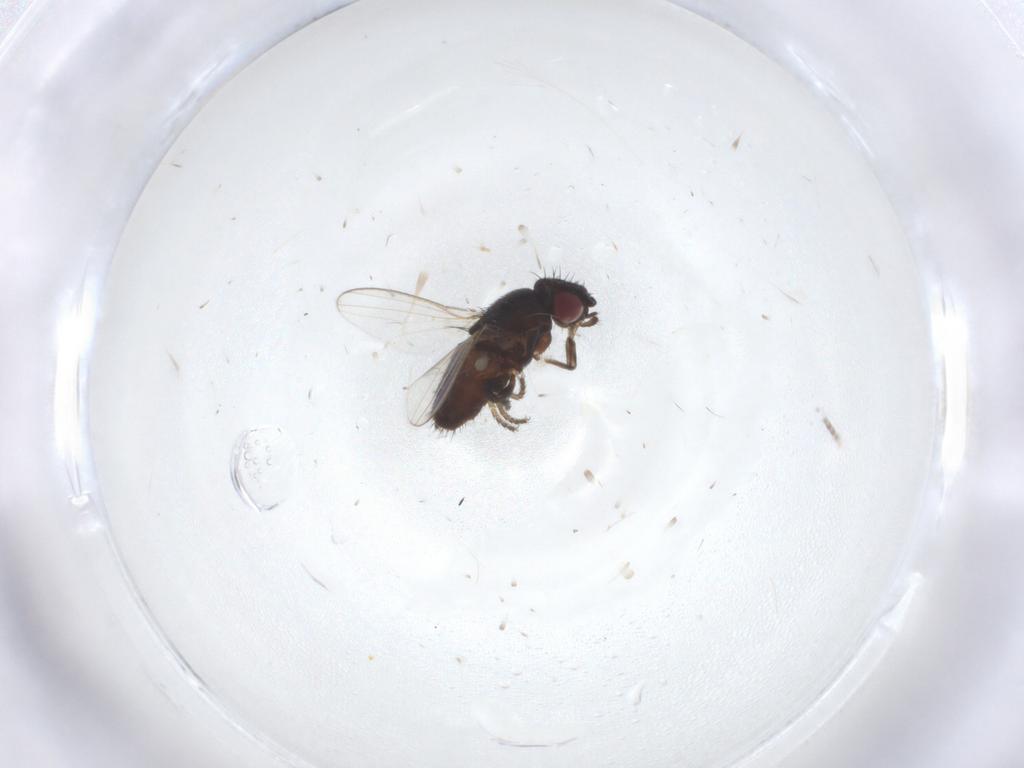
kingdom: Animalia
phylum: Arthropoda
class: Insecta
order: Diptera
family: Milichiidae
